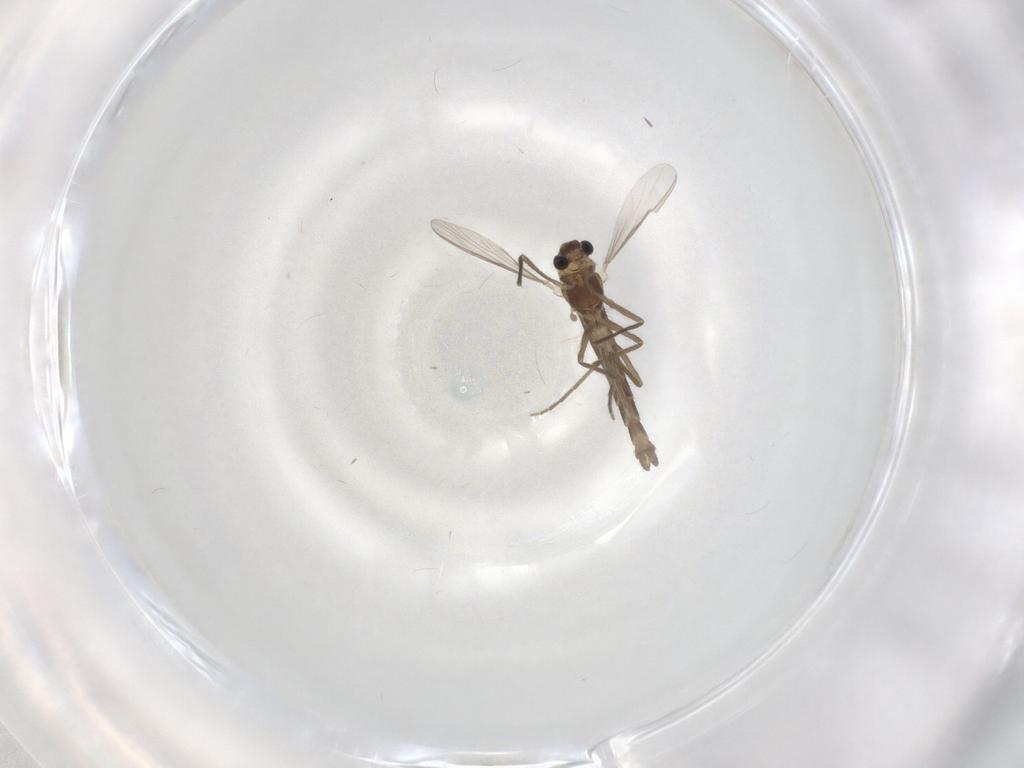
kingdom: Animalia
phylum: Arthropoda
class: Insecta
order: Diptera
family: Chironomidae
